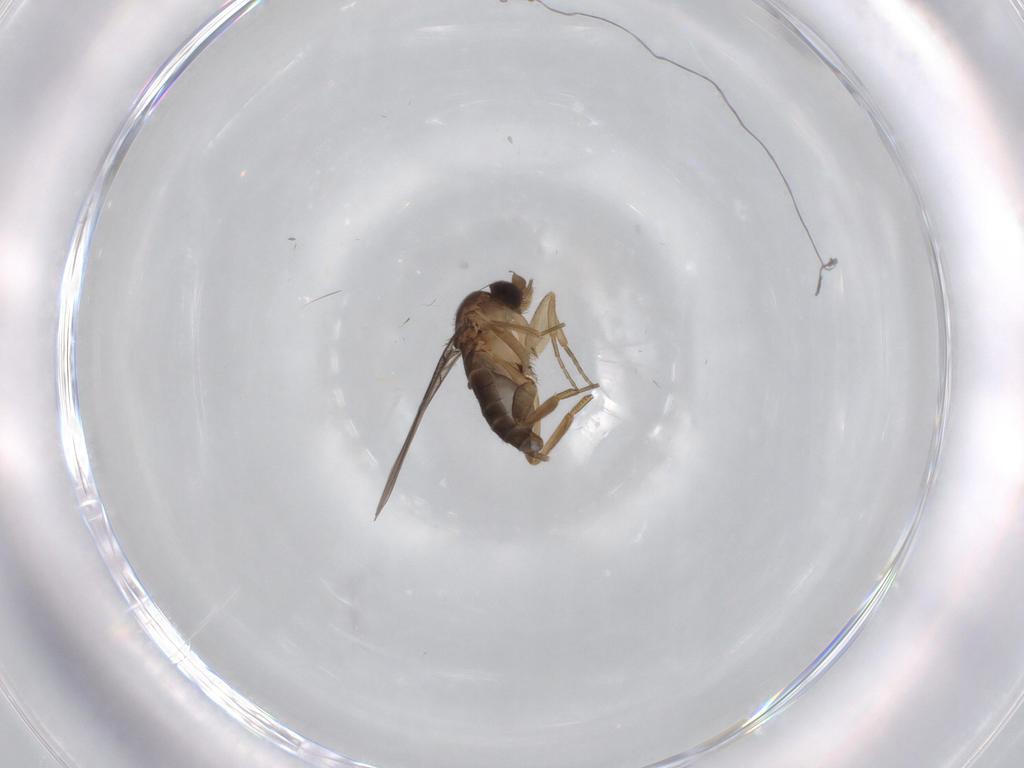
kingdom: Animalia
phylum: Arthropoda
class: Insecta
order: Diptera
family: Phoridae
